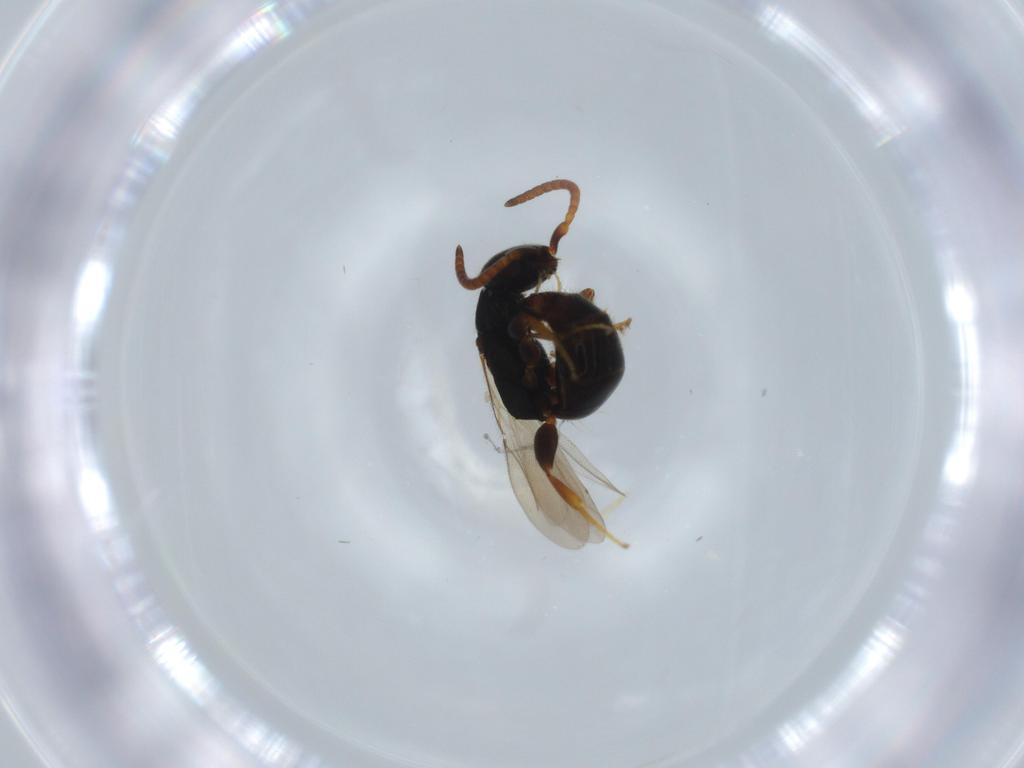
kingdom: Animalia
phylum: Arthropoda
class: Insecta
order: Hymenoptera
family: Bethylidae
